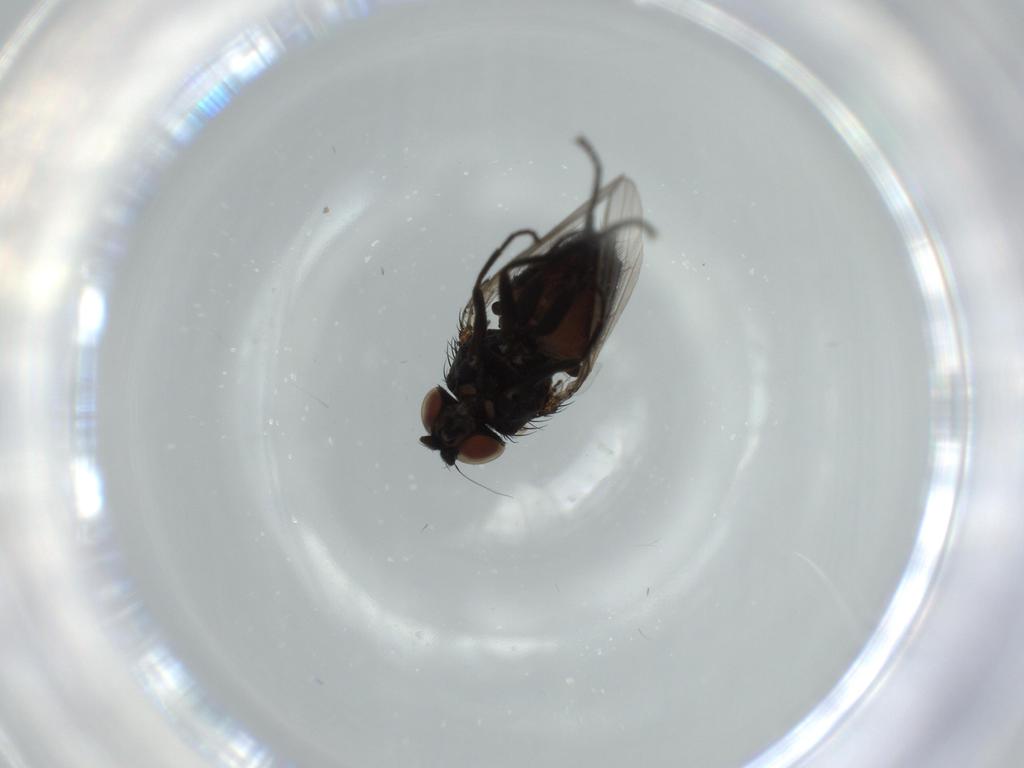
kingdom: Animalia
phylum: Arthropoda
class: Insecta
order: Diptera
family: Milichiidae
